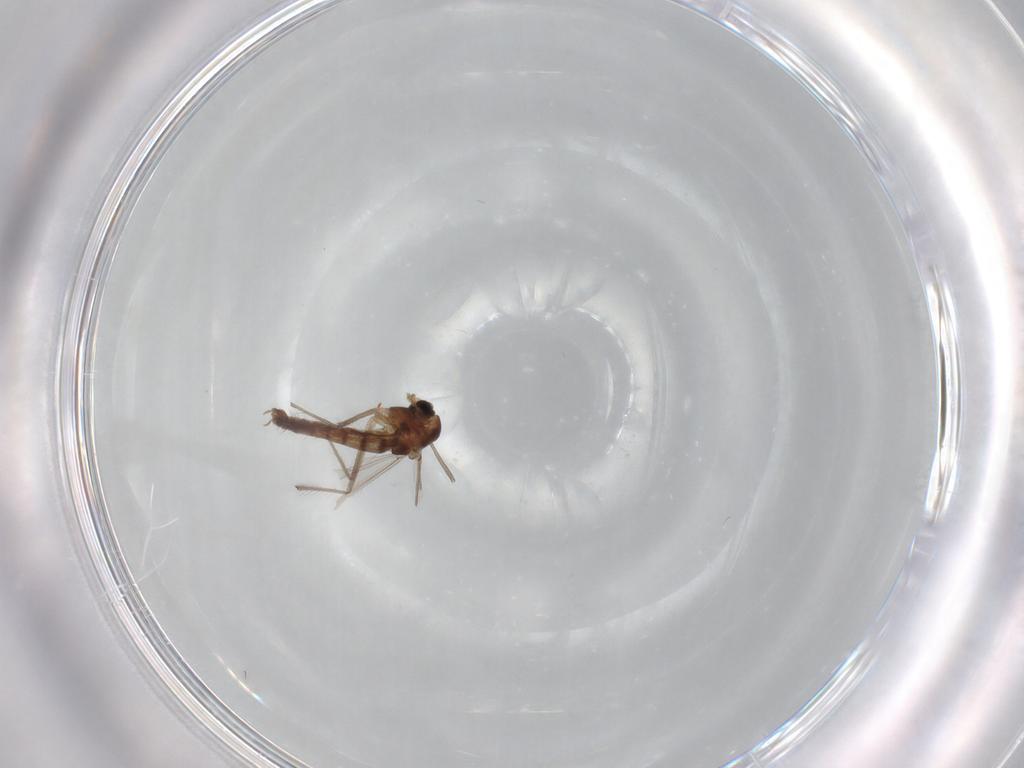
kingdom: Animalia
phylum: Arthropoda
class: Insecta
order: Diptera
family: Chironomidae
